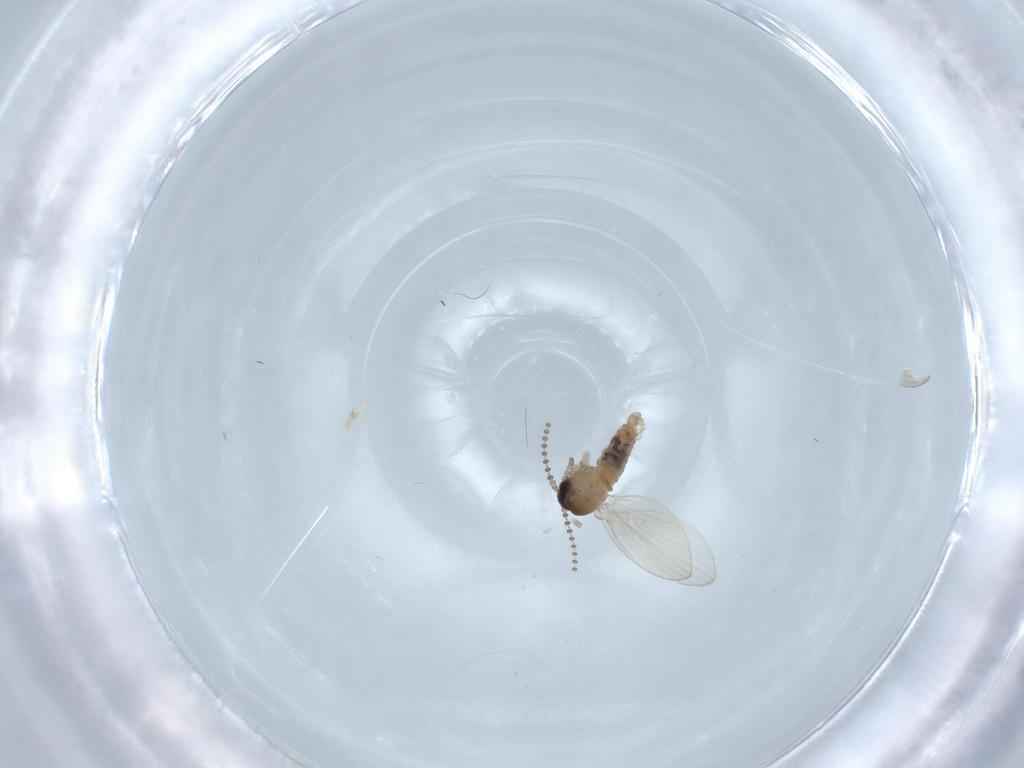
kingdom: Animalia
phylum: Arthropoda
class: Insecta
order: Diptera
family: Psychodidae
